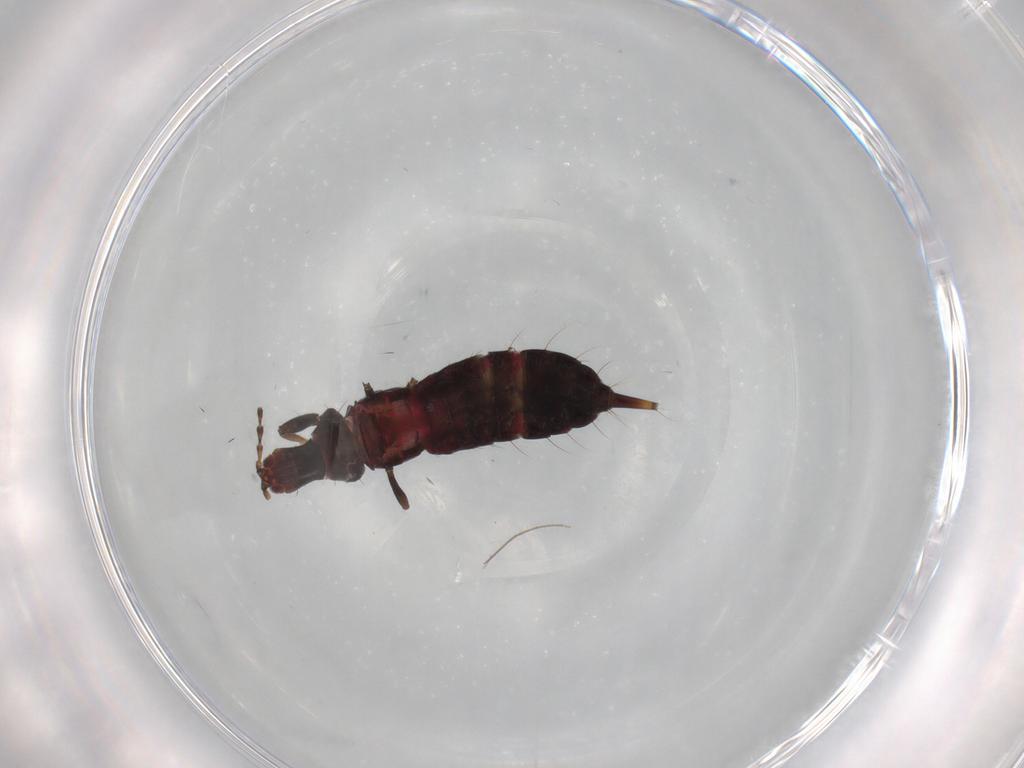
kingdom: Animalia
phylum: Arthropoda
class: Insecta
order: Thysanoptera
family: Phlaeothripidae
